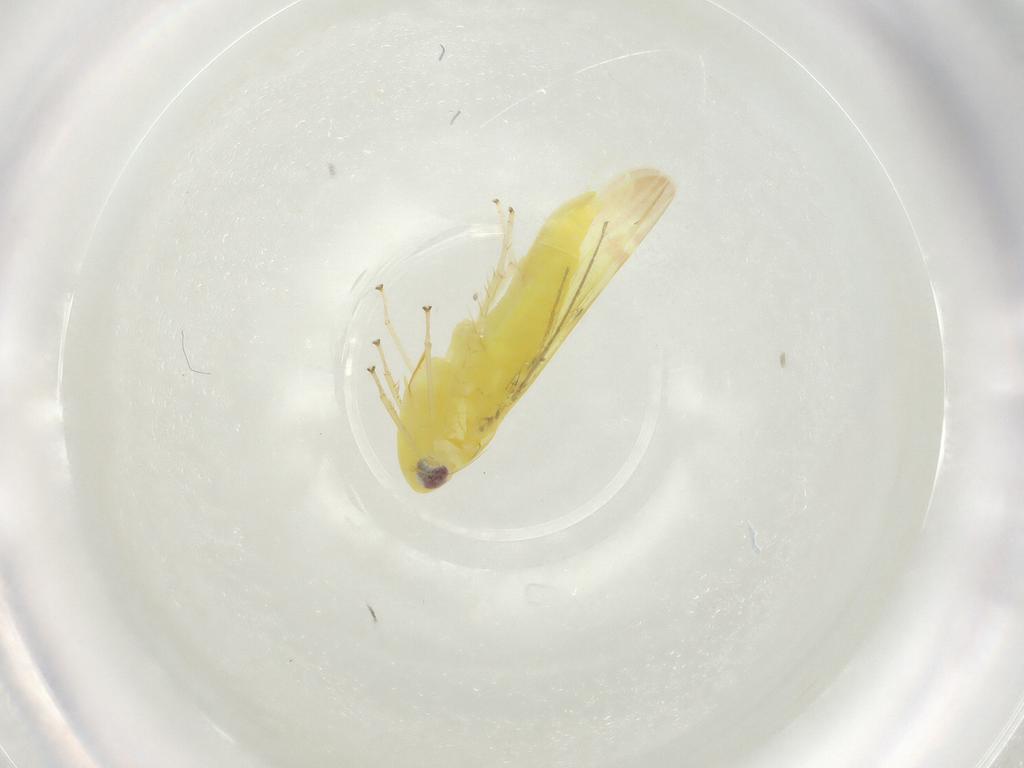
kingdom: Animalia
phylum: Arthropoda
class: Insecta
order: Hemiptera
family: Cicadellidae
